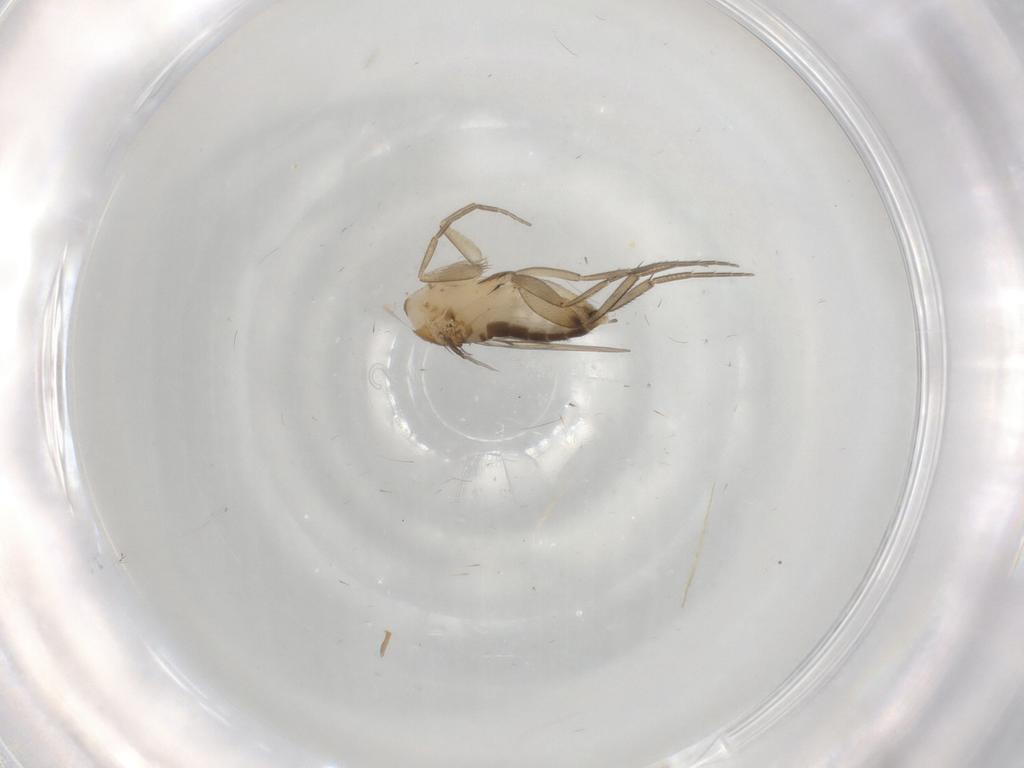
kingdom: Animalia
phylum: Arthropoda
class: Insecta
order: Diptera
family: Phoridae
